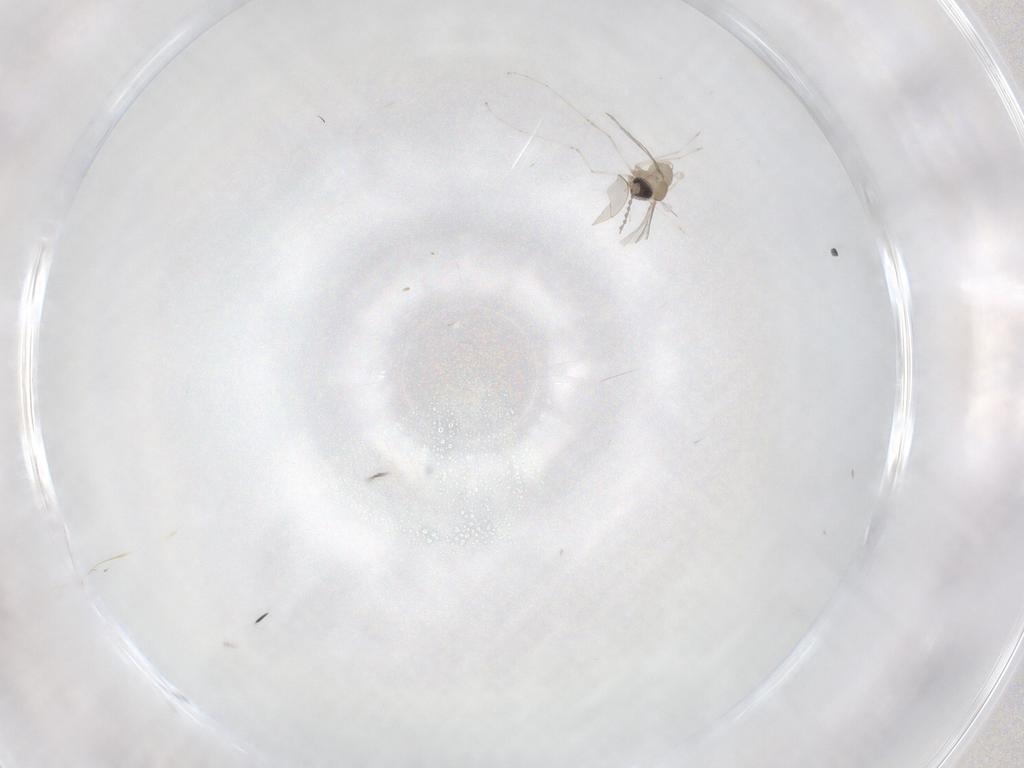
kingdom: Animalia
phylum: Arthropoda
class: Insecta
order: Diptera
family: Cecidomyiidae
